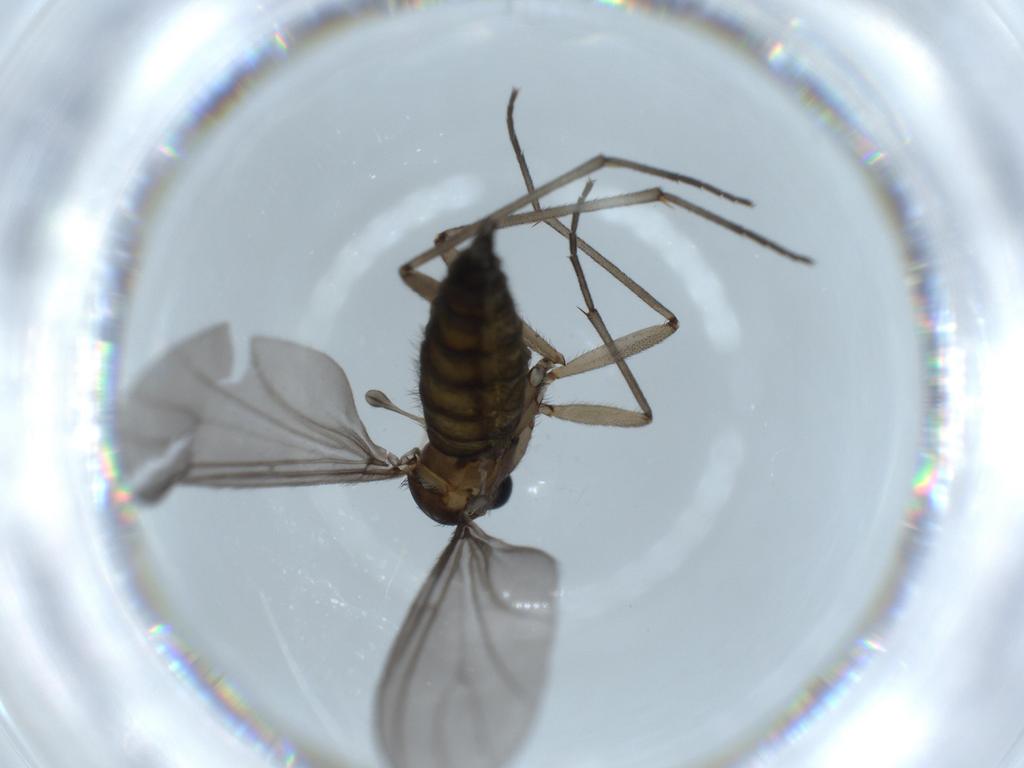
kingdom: Animalia
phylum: Arthropoda
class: Insecta
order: Diptera
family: Sciaridae
